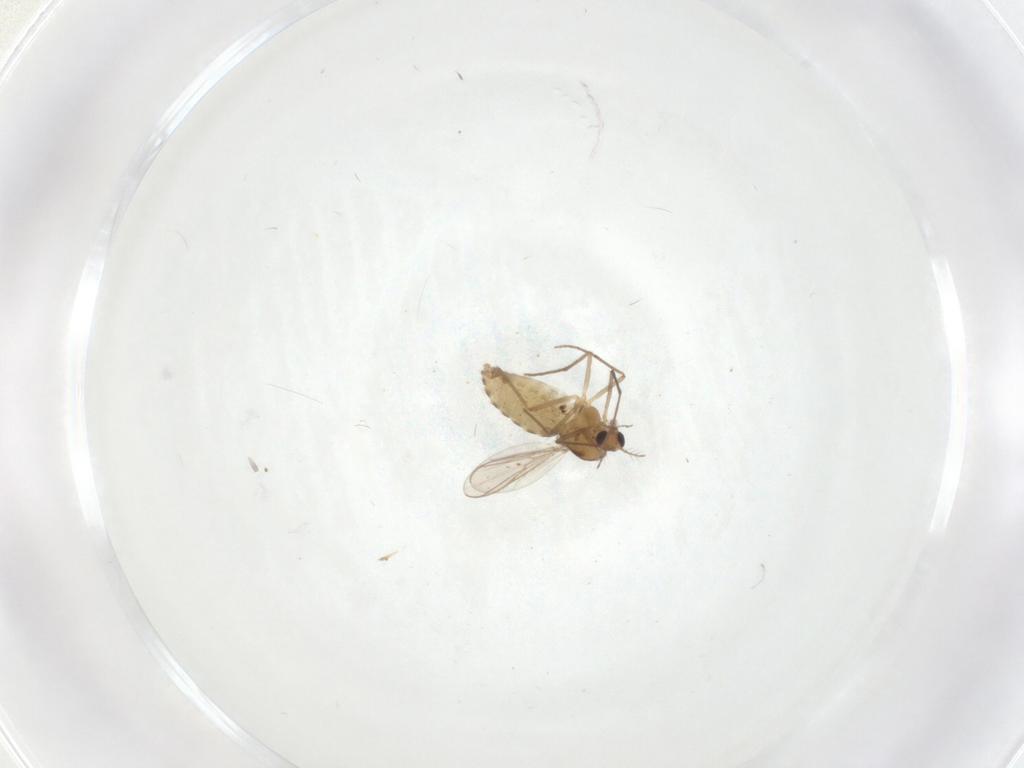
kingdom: Animalia
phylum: Arthropoda
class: Insecta
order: Diptera
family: Chironomidae
